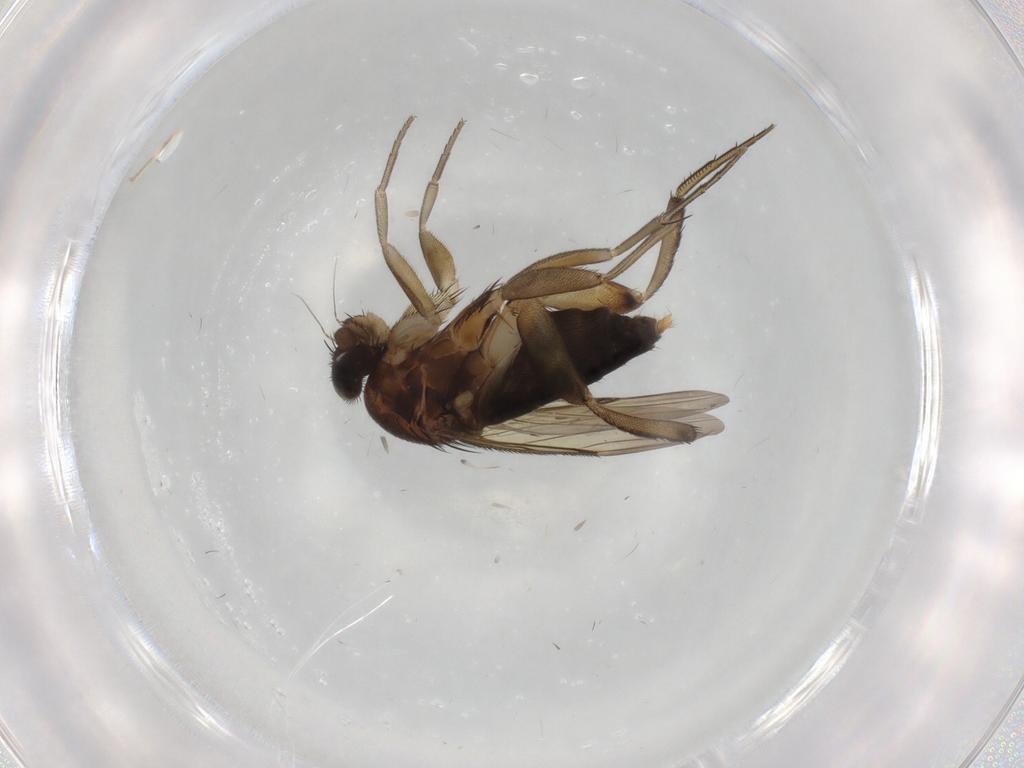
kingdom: Animalia
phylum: Arthropoda
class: Insecta
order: Diptera
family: Phoridae
